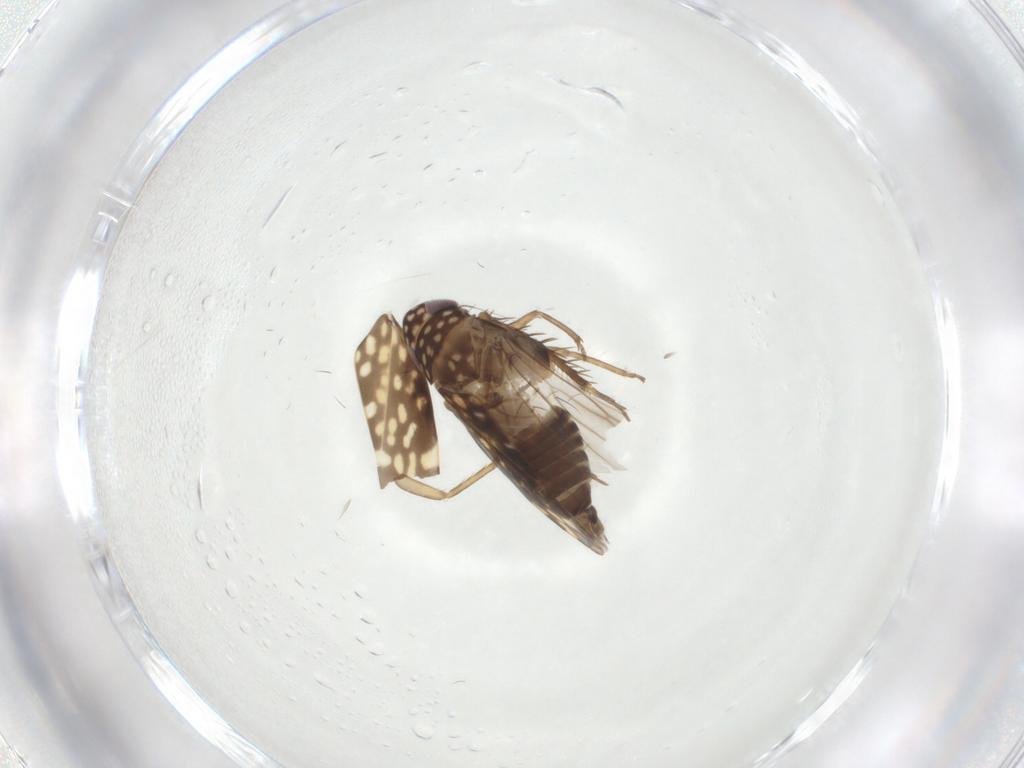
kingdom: Animalia
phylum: Arthropoda
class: Insecta
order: Hemiptera
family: Cicadellidae
